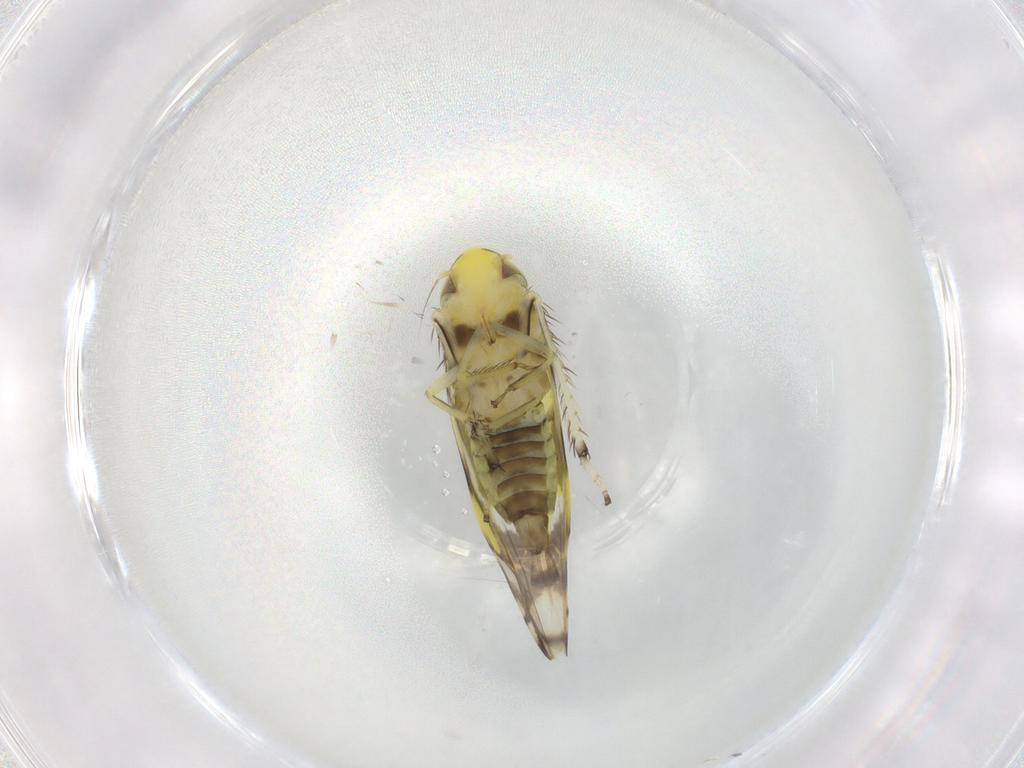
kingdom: Animalia
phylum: Arthropoda
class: Insecta
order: Hemiptera
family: Cicadellidae
